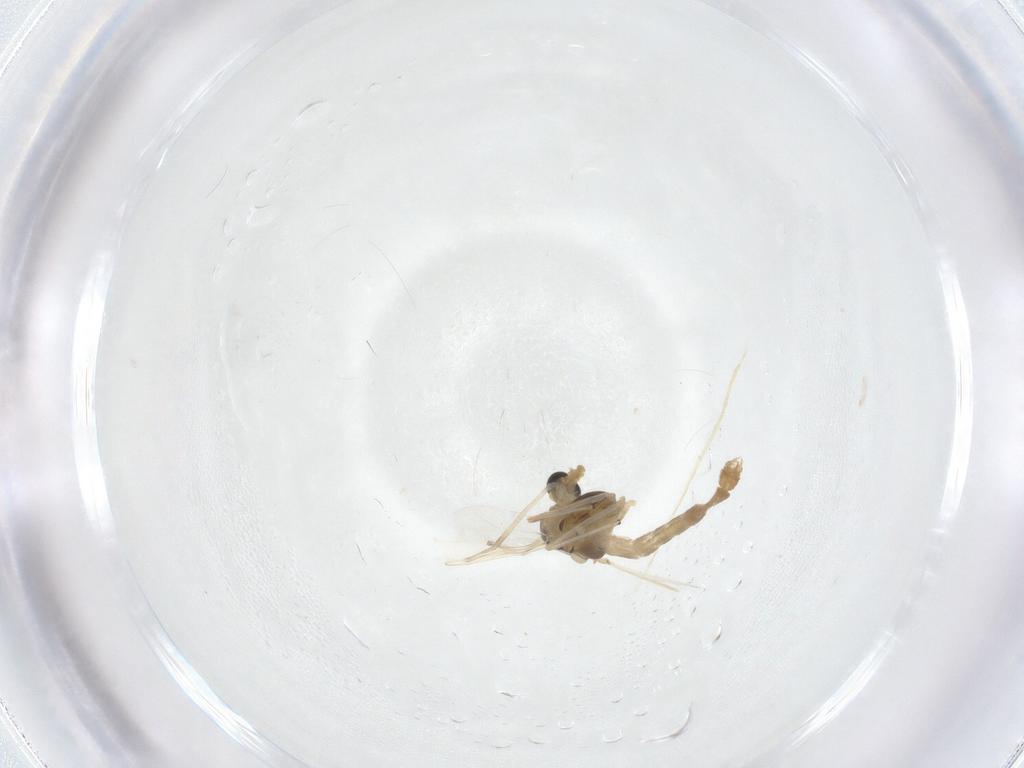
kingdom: Animalia
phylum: Arthropoda
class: Insecta
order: Diptera
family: Chironomidae
